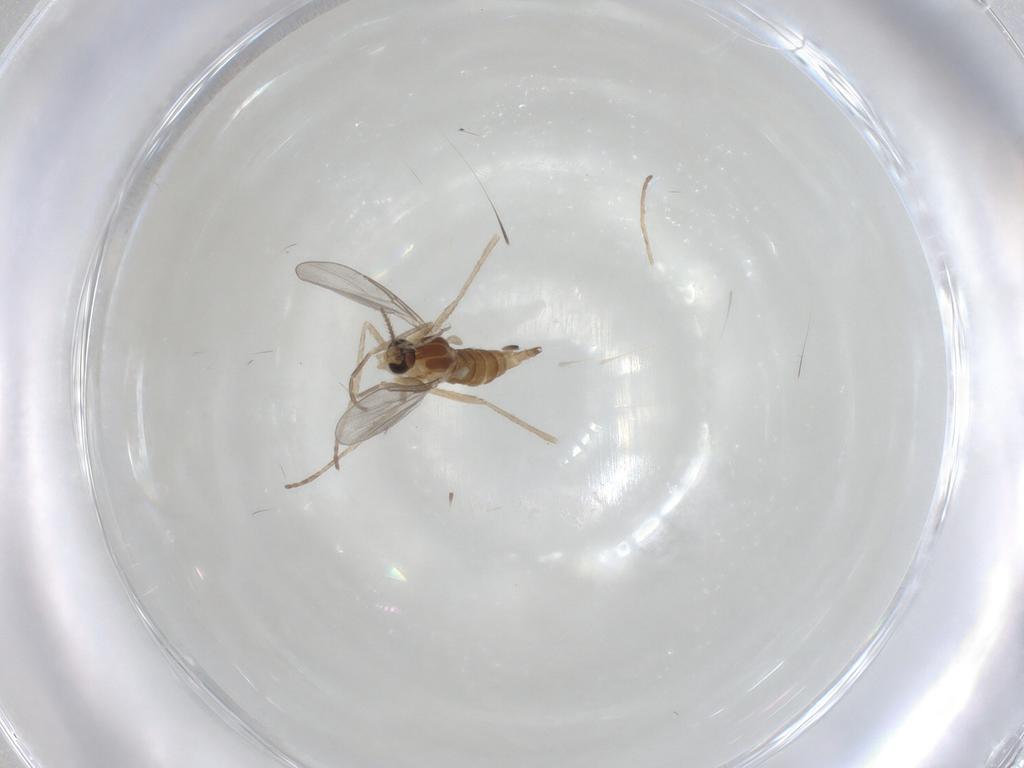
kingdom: Animalia
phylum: Arthropoda
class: Insecta
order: Diptera
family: Cecidomyiidae
